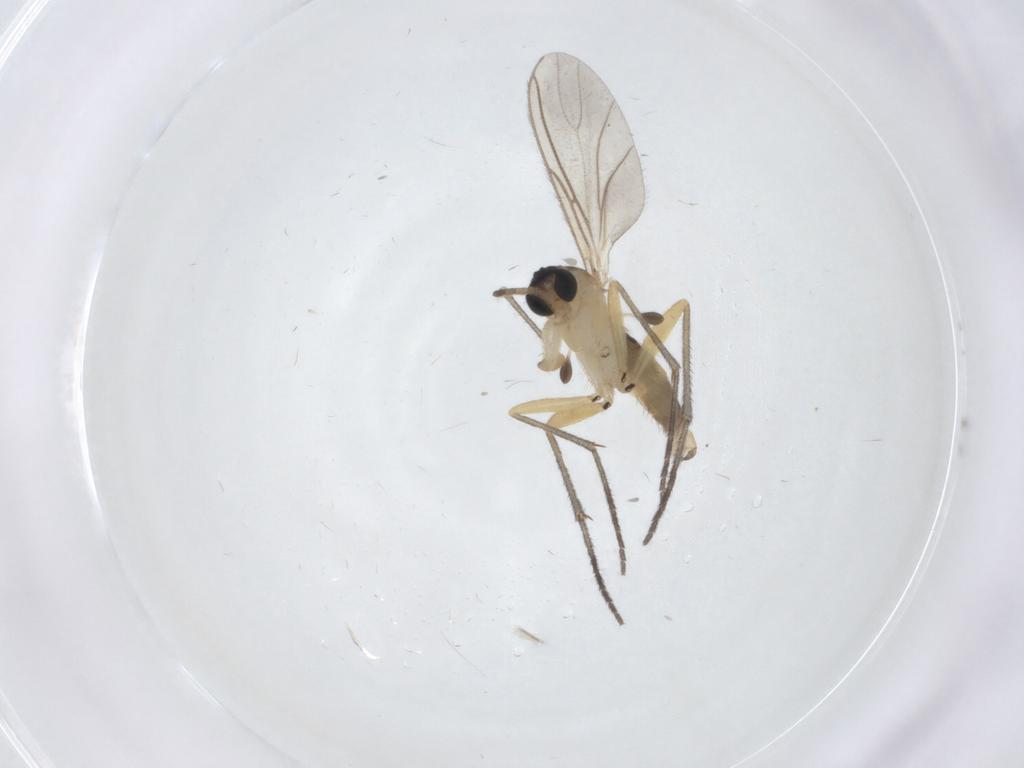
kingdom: Animalia
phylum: Arthropoda
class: Insecta
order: Diptera
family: Sciaridae
